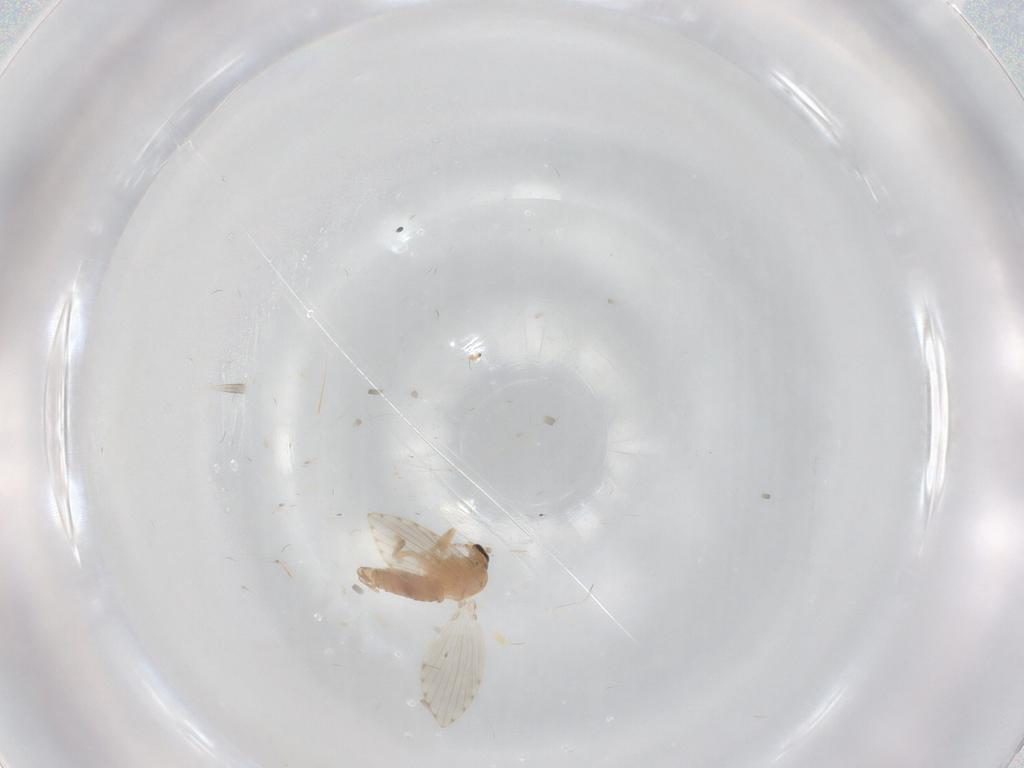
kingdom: Animalia
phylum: Arthropoda
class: Insecta
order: Diptera
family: Psychodidae
